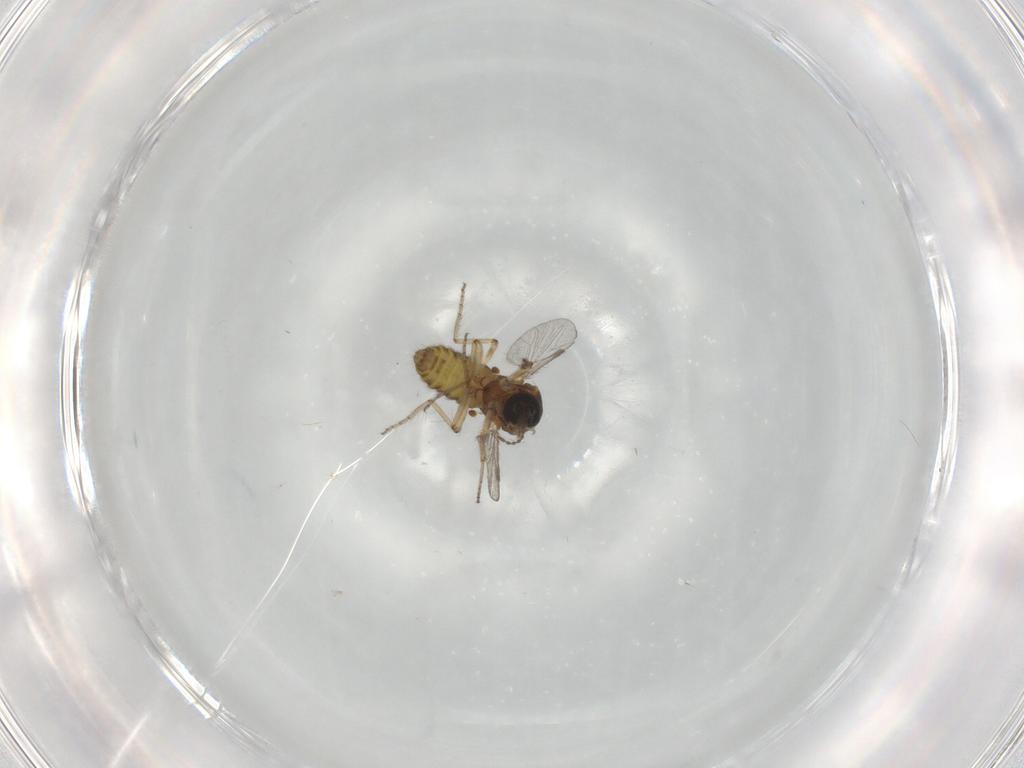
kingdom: Animalia
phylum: Arthropoda
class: Insecta
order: Diptera
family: Ceratopogonidae
